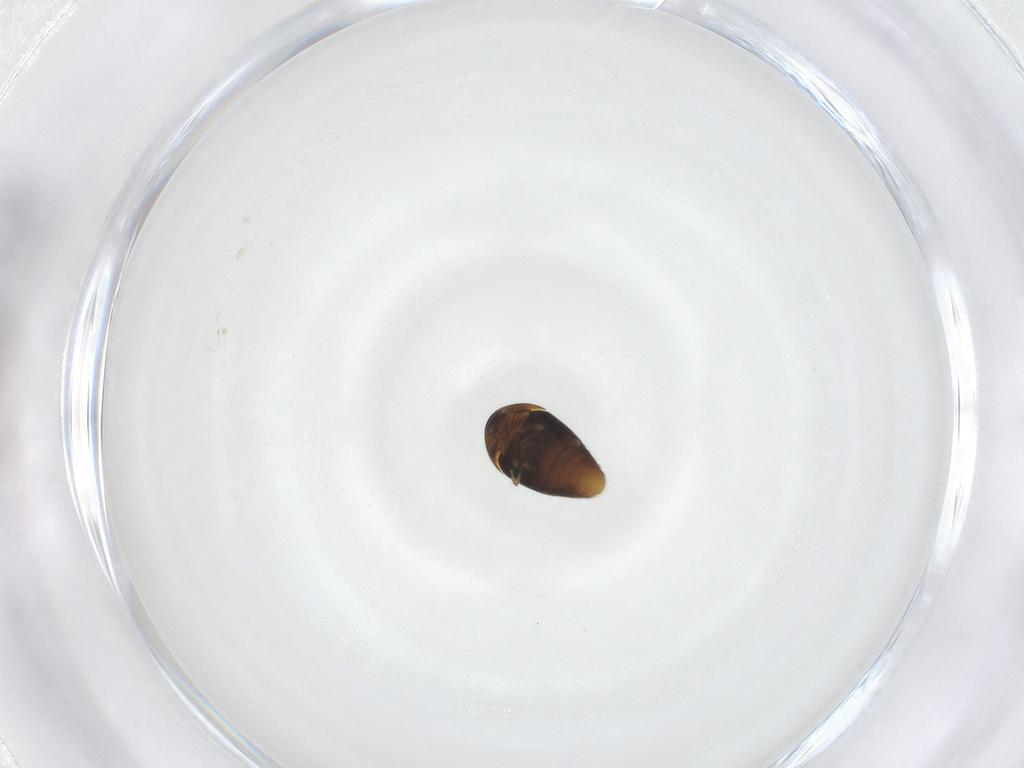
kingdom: Animalia
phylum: Arthropoda
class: Insecta
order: Coleoptera
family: Corylophidae
